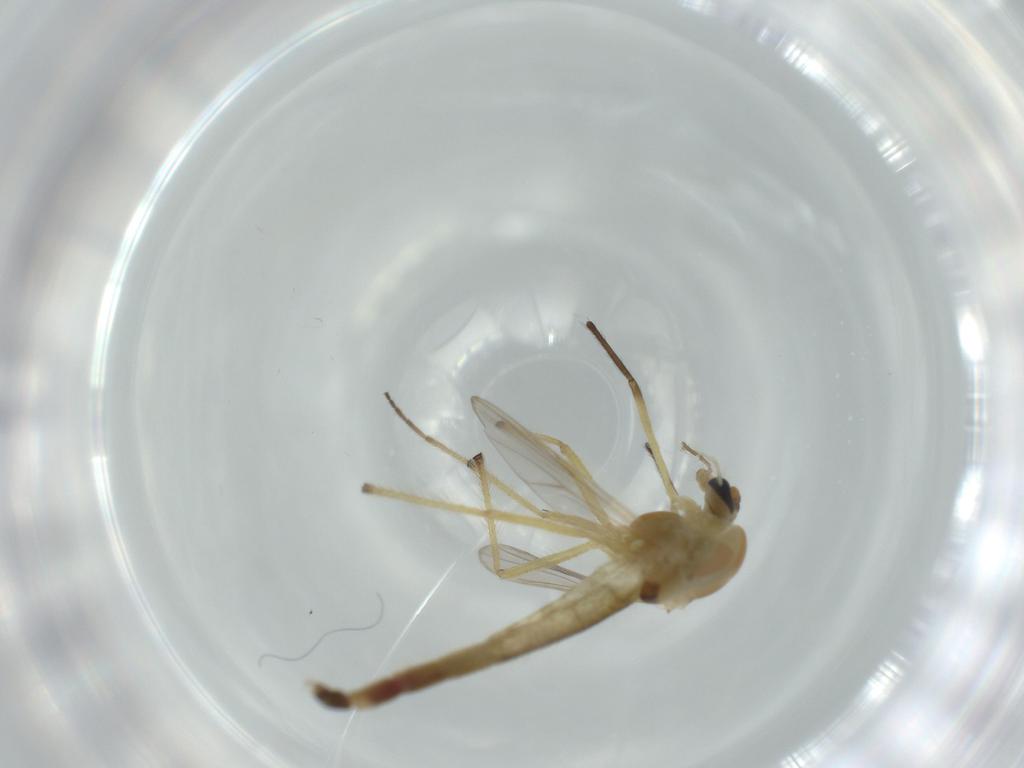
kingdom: Animalia
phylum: Arthropoda
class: Insecta
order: Diptera
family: Chironomidae
